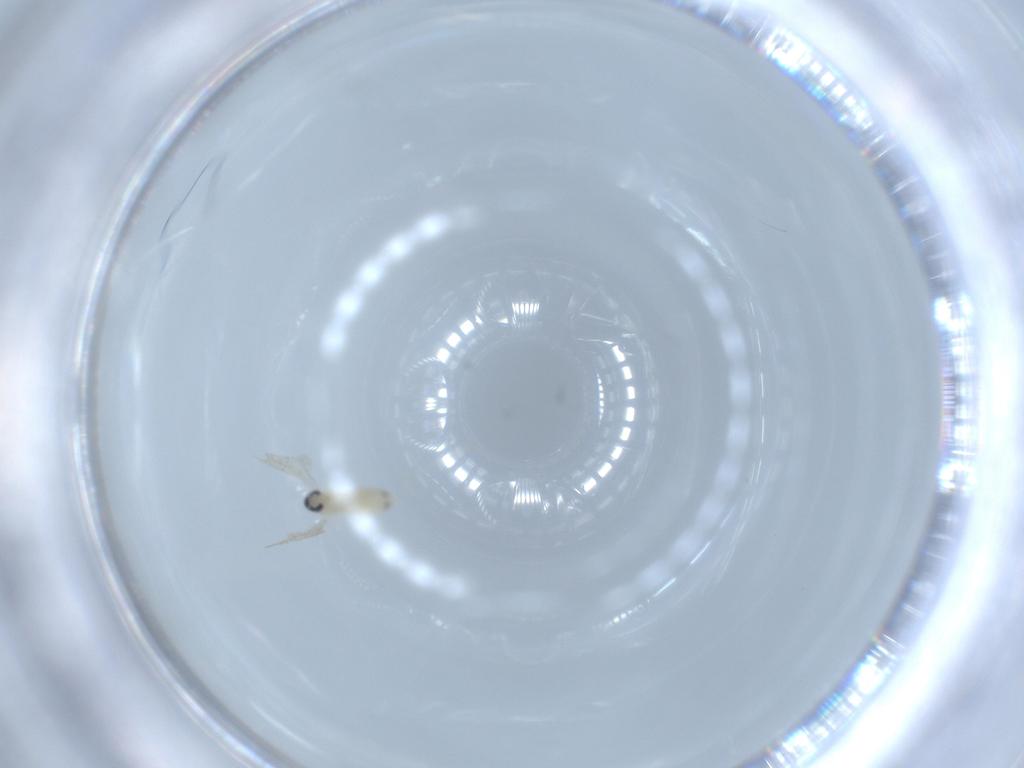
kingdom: Animalia
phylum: Arthropoda
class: Insecta
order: Diptera
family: Cecidomyiidae
